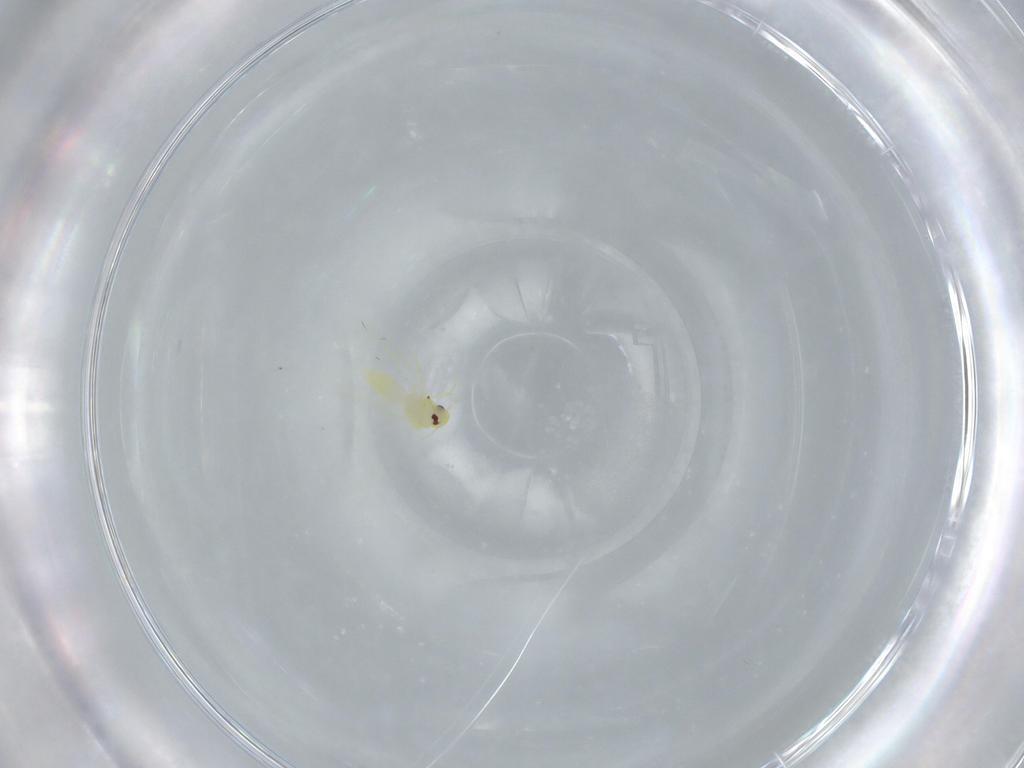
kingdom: Animalia
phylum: Arthropoda
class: Insecta
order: Hemiptera
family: Aleyrodidae
